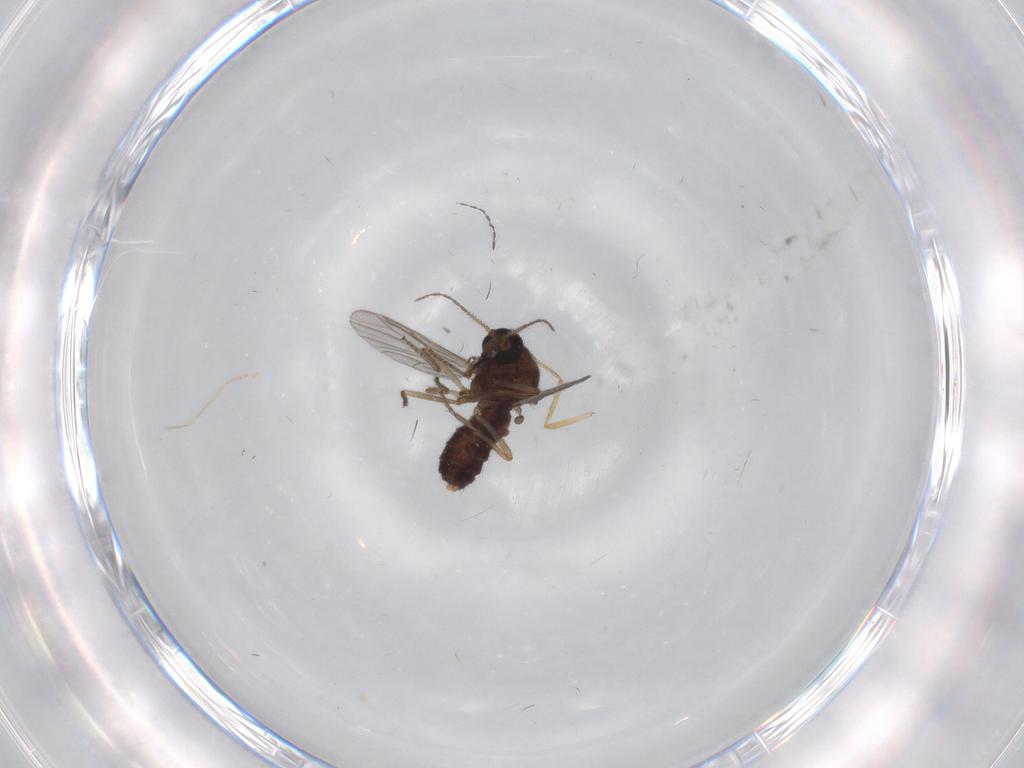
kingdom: Animalia
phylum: Arthropoda
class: Insecta
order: Diptera
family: Ceratopogonidae
